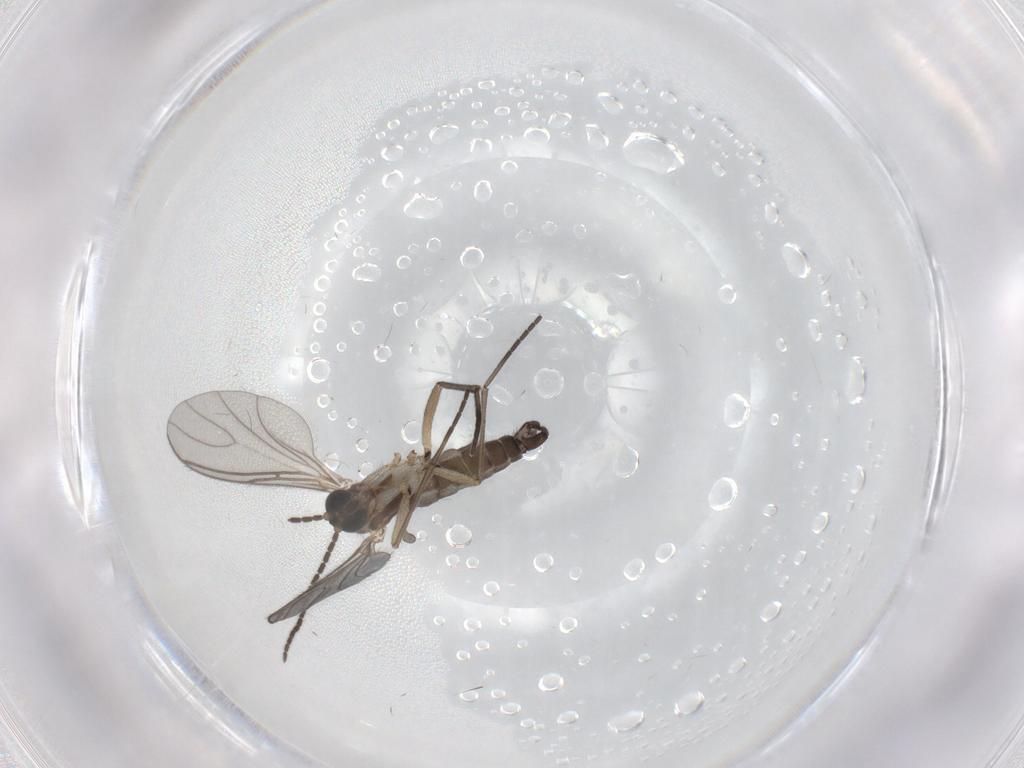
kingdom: Animalia
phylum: Arthropoda
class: Insecta
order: Diptera
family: Sciaridae
